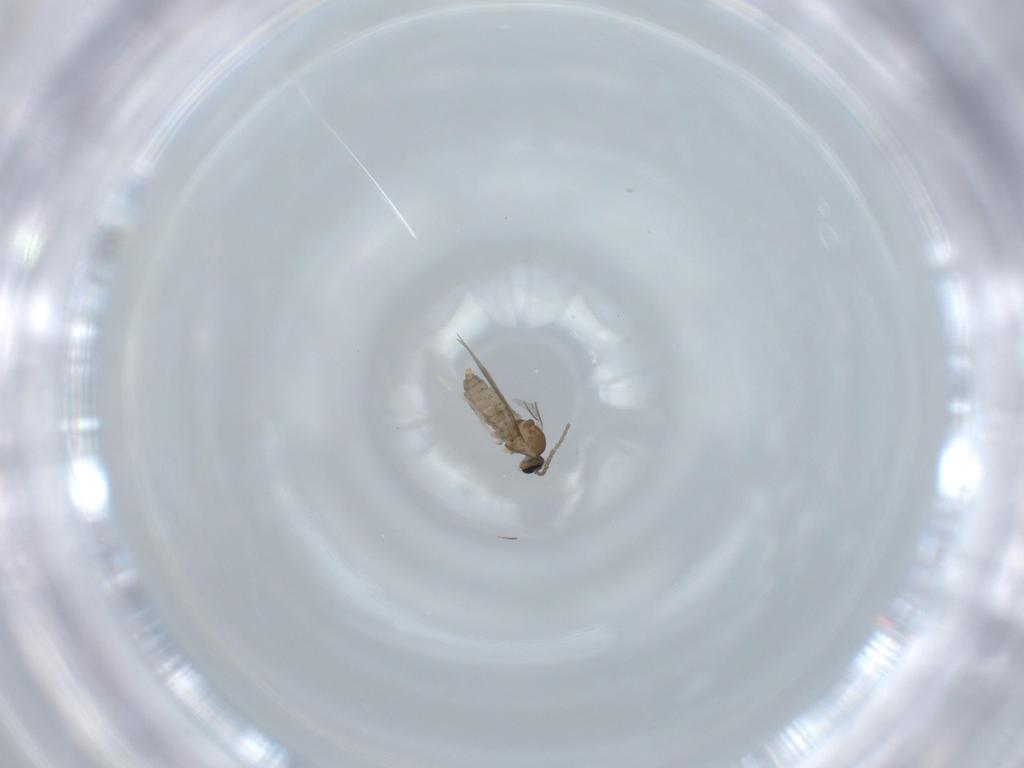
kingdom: Animalia
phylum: Arthropoda
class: Insecta
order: Diptera
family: Cecidomyiidae
